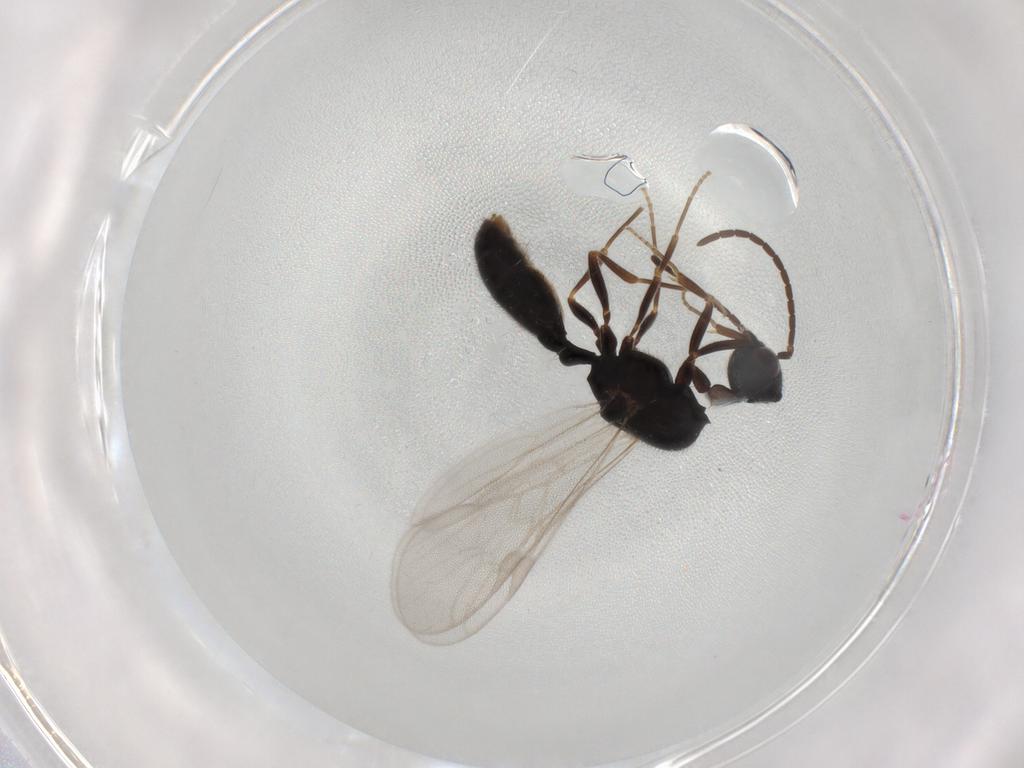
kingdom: Animalia
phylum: Arthropoda
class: Insecta
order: Hymenoptera
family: Formicidae
